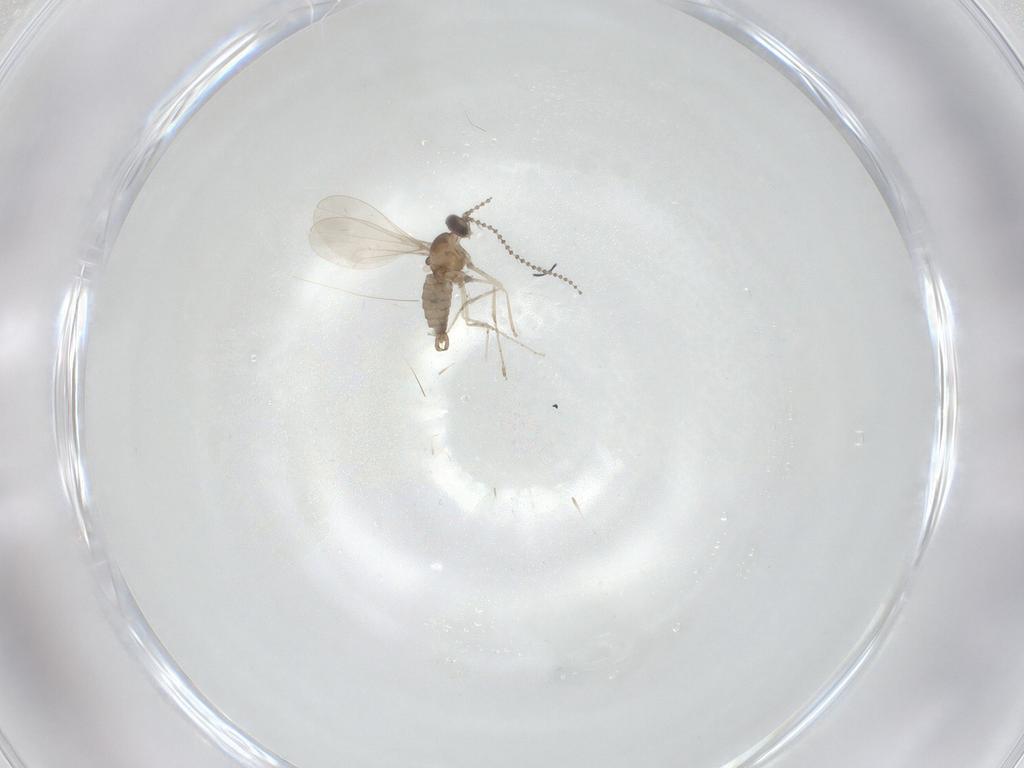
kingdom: Animalia
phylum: Arthropoda
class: Insecta
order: Diptera
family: Cecidomyiidae
